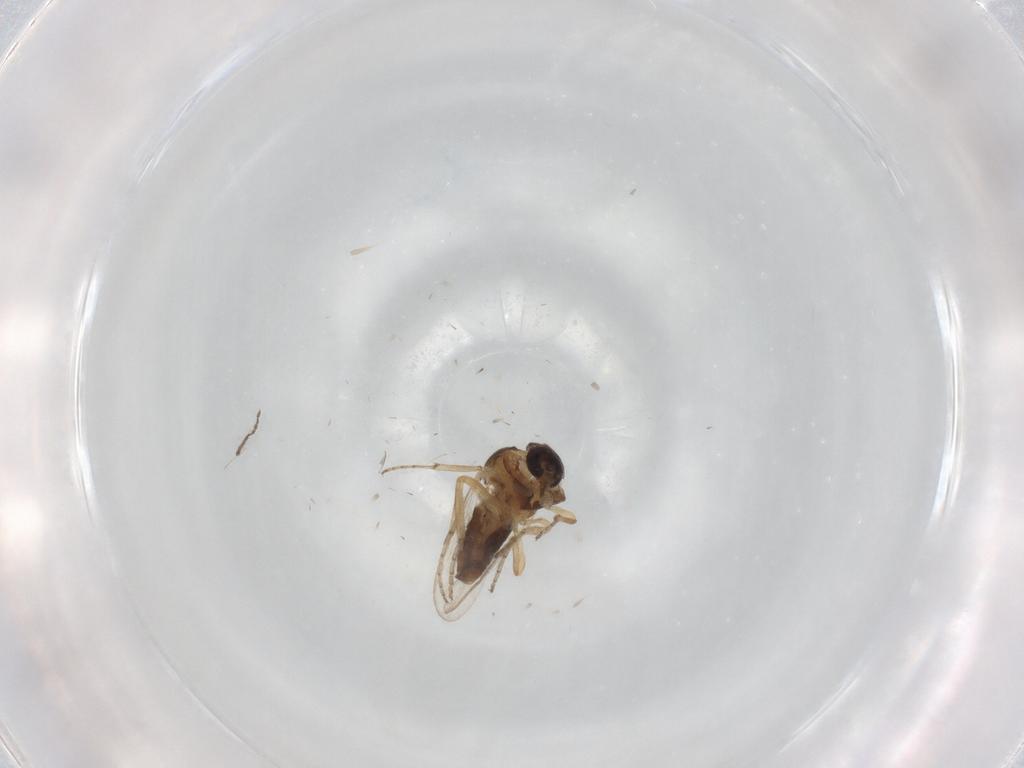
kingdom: Animalia
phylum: Arthropoda
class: Insecta
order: Diptera
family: Ceratopogonidae
